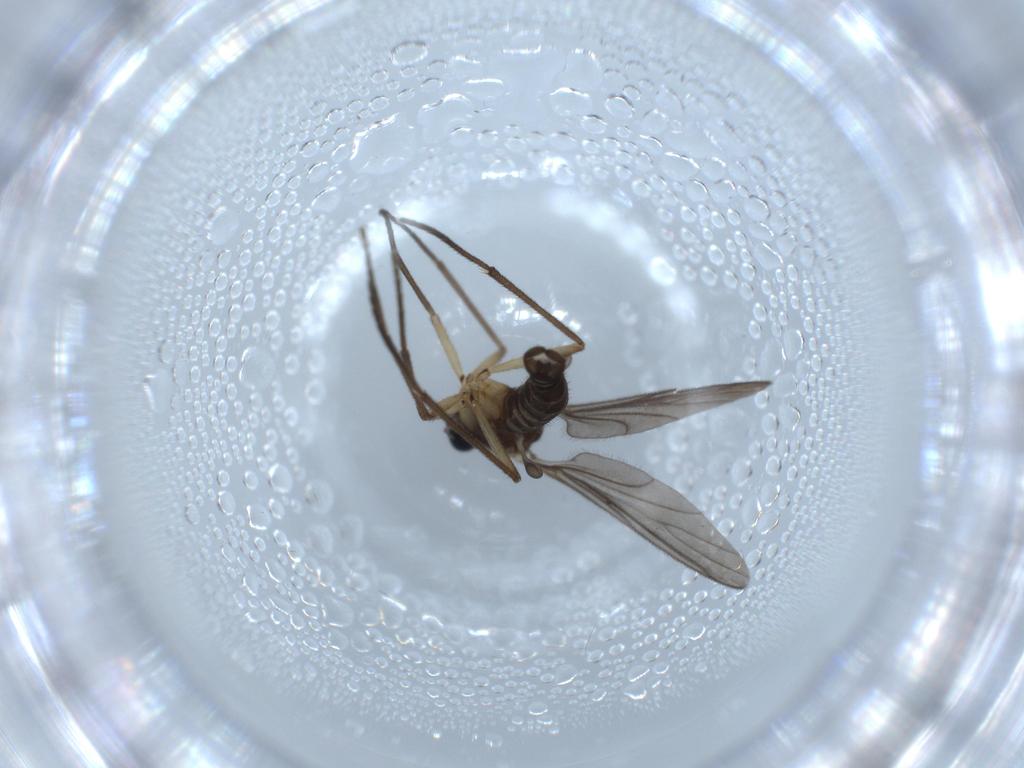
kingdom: Animalia
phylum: Arthropoda
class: Insecta
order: Diptera
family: Sciaridae
